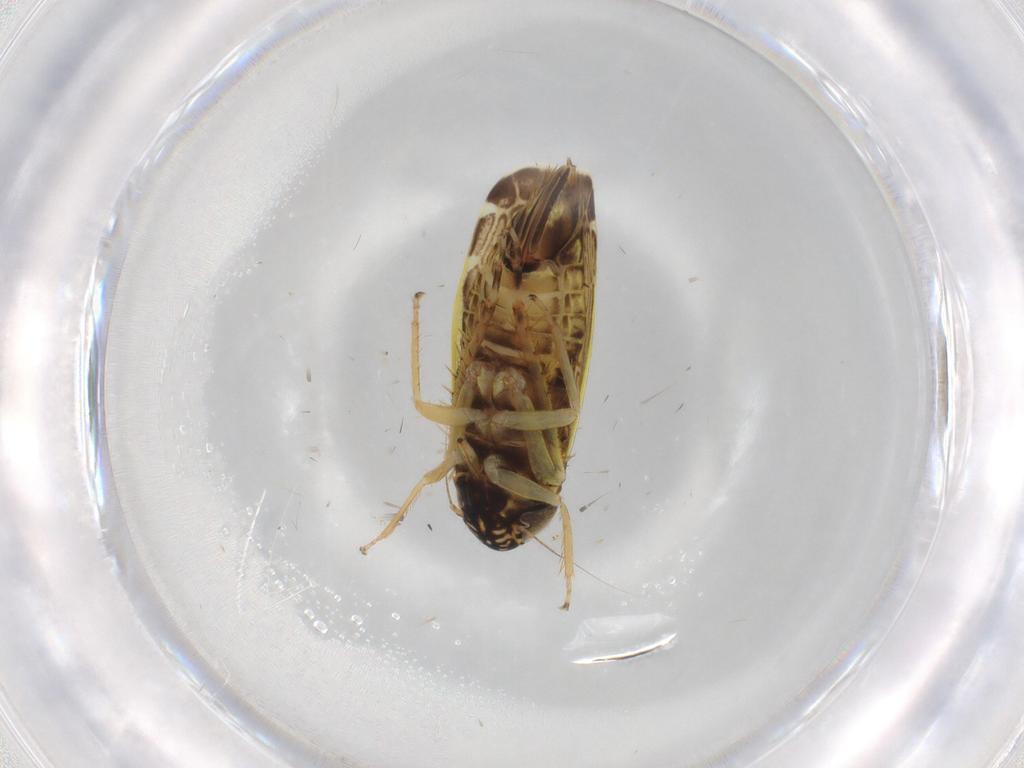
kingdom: Animalia
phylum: Arthropoda
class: Insecta
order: Hemiptera
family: Cicadellidae
